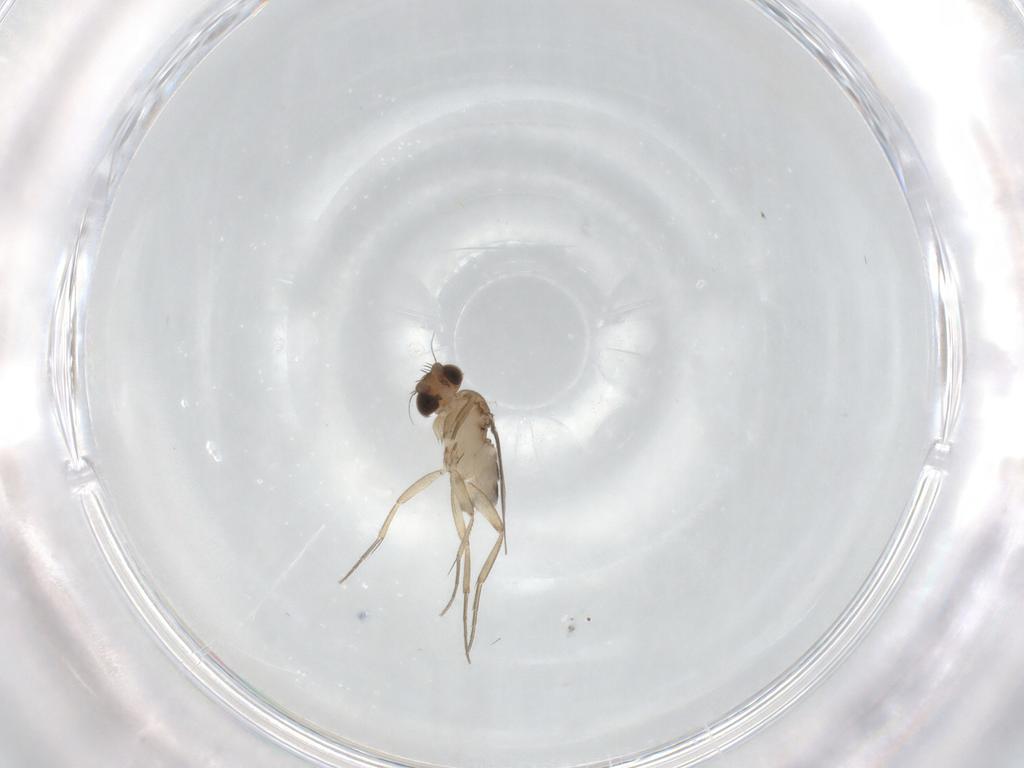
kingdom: Animalia
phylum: Arthropoda
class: Insecta
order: Diptera
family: Phoridae
